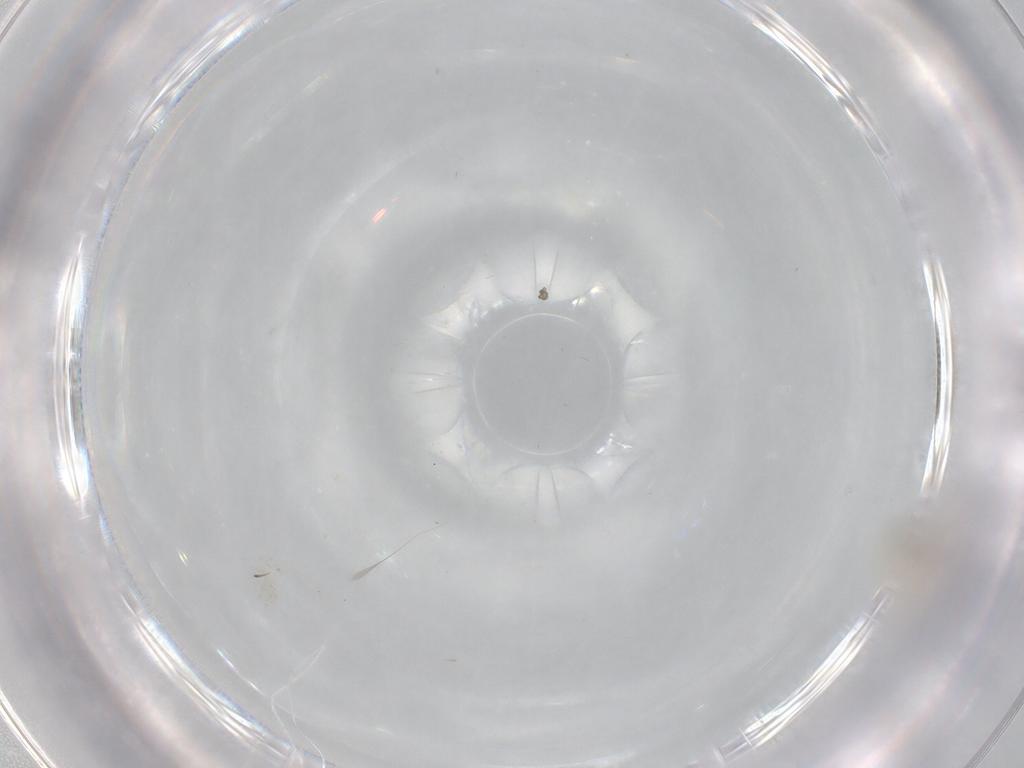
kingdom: Animalia
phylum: Arthropoda
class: Insecta
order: Diptera
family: Cecidomyiidae
